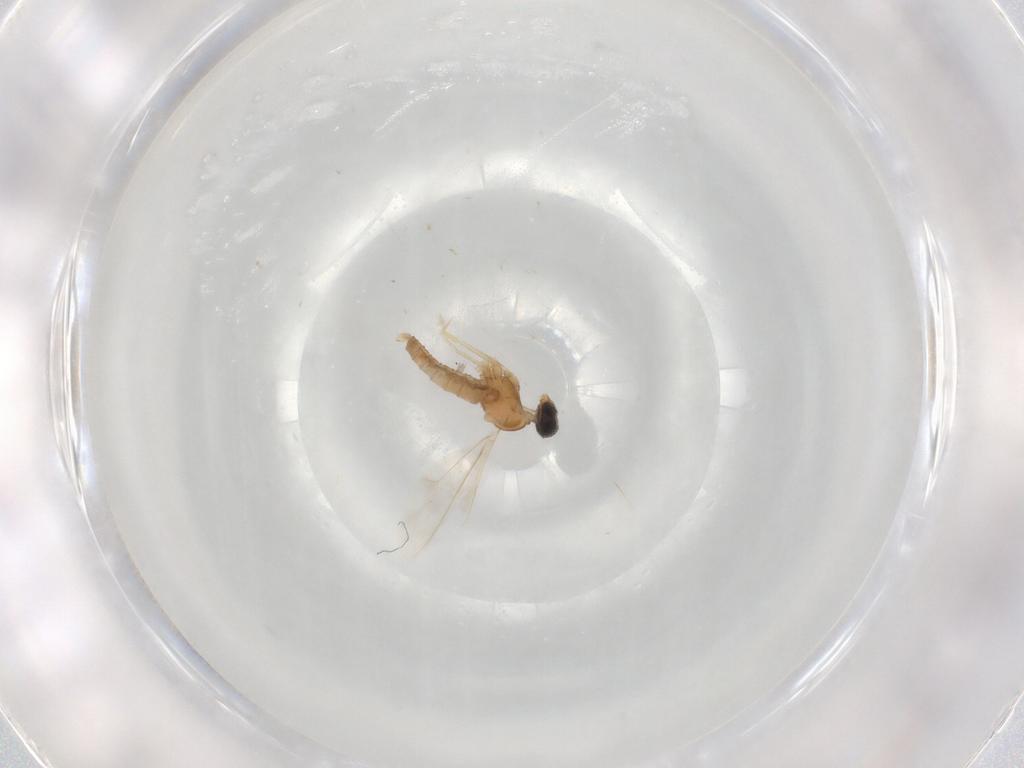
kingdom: Animalia
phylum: Arthropoda
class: Insecta
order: Diptera
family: Cecidomyiidae
